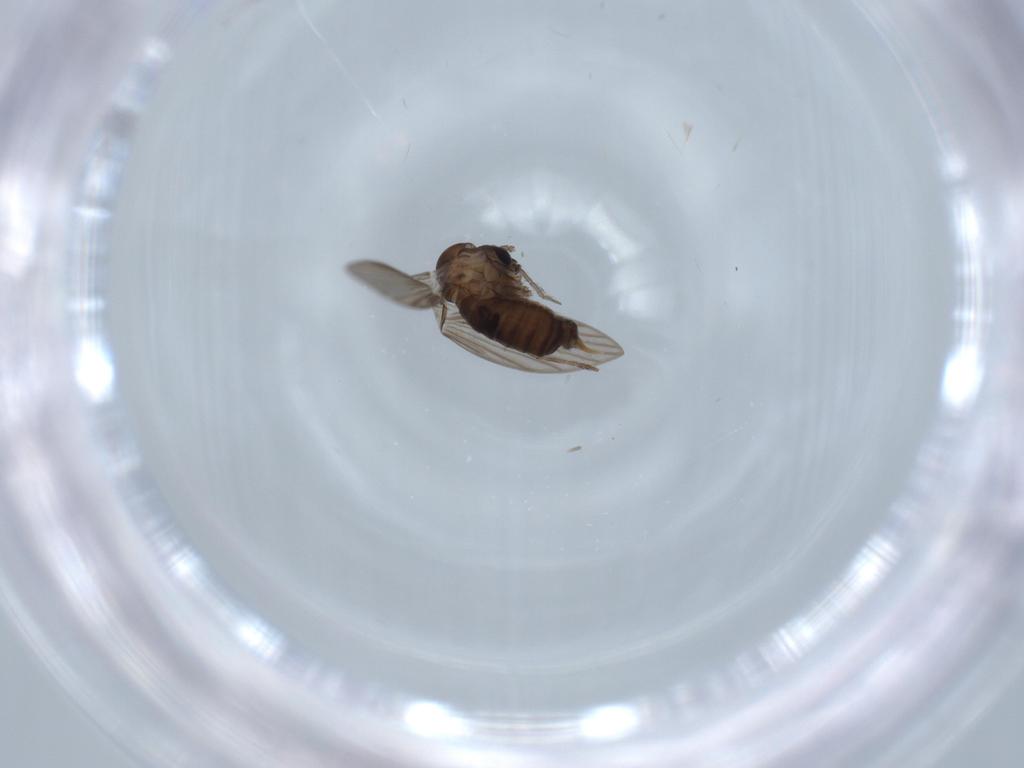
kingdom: Animalia
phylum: Arthropoda
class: Insecta
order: Diptera
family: Psychodidae
